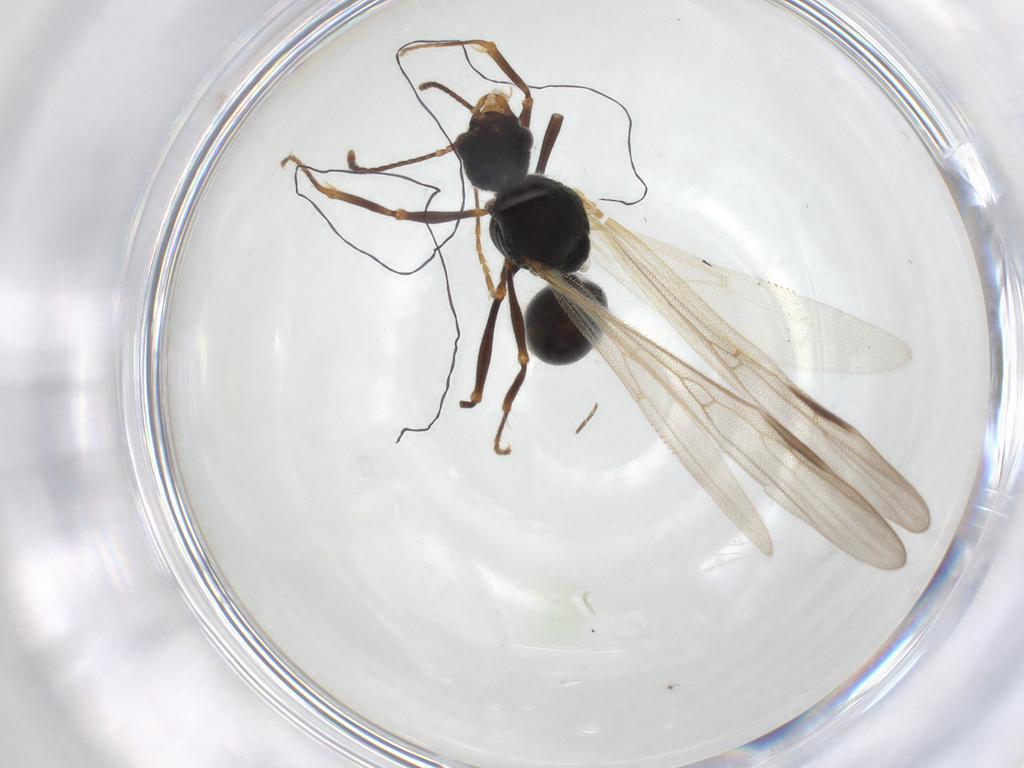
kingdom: Animalia
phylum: Arthropoda
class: Insecta
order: Hymenoptera
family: Formicidae
